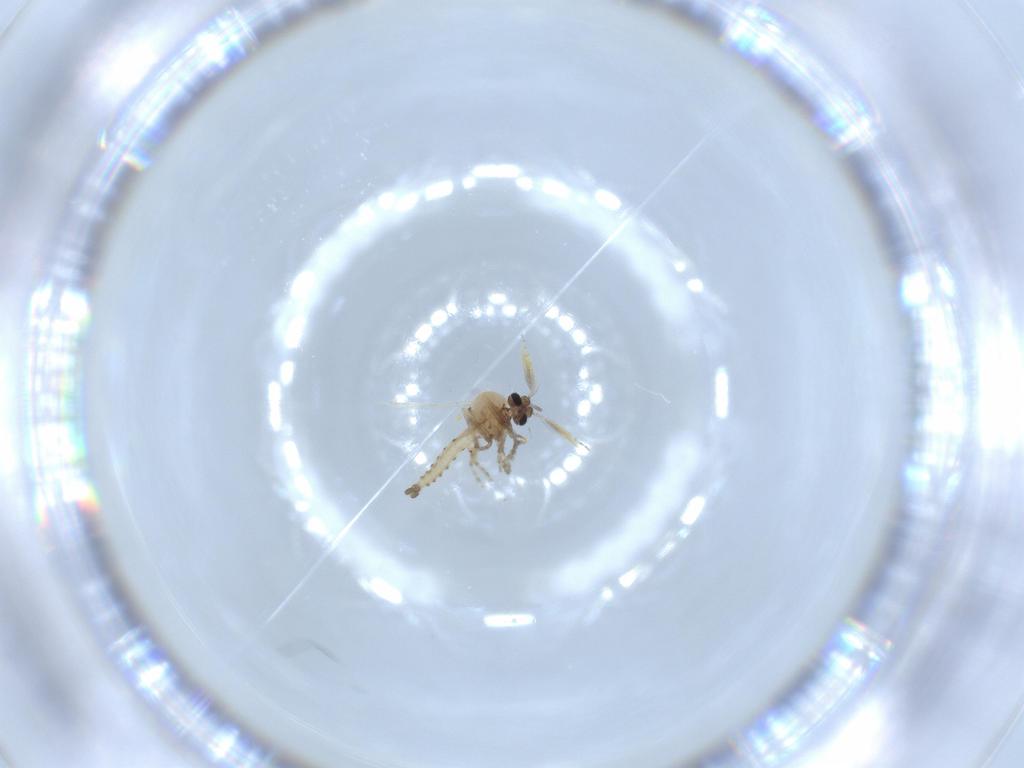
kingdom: Animalia
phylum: Arthropoda
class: Insecta
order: Diptera
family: Ceratopogonidae
